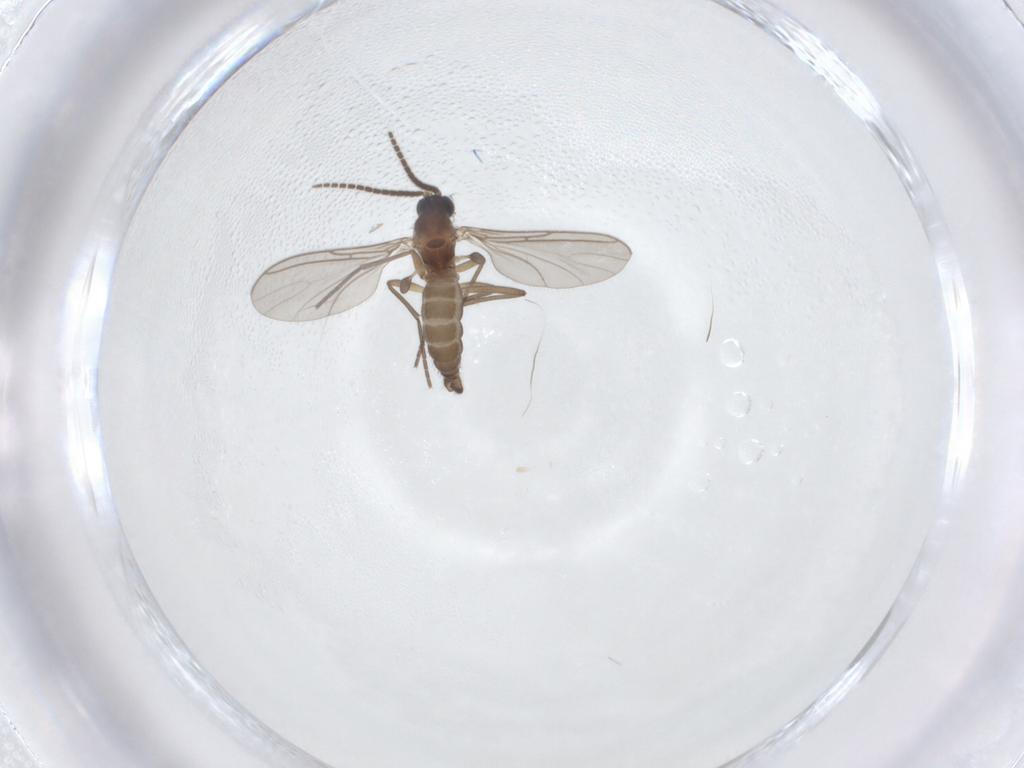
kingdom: Animalia
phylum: Arthropoda
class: Insecta
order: Diptera
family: Sciaridae
